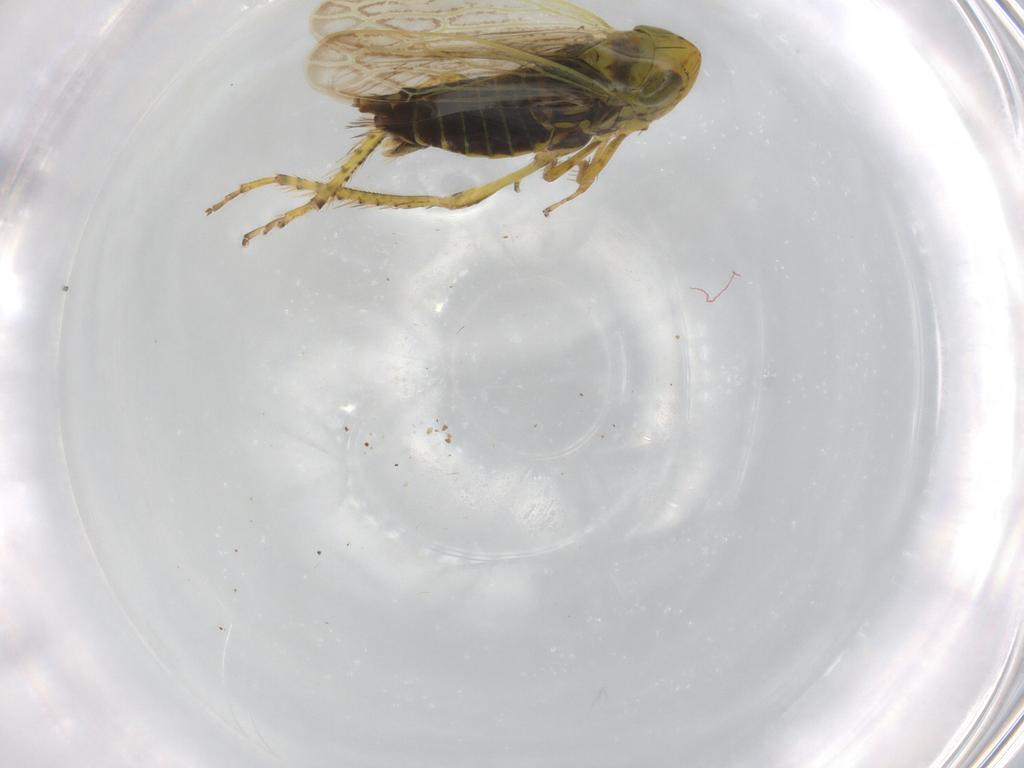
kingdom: Animalia
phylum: Arthropoda
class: Insecta
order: Hemiptera
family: Cicadellidae
